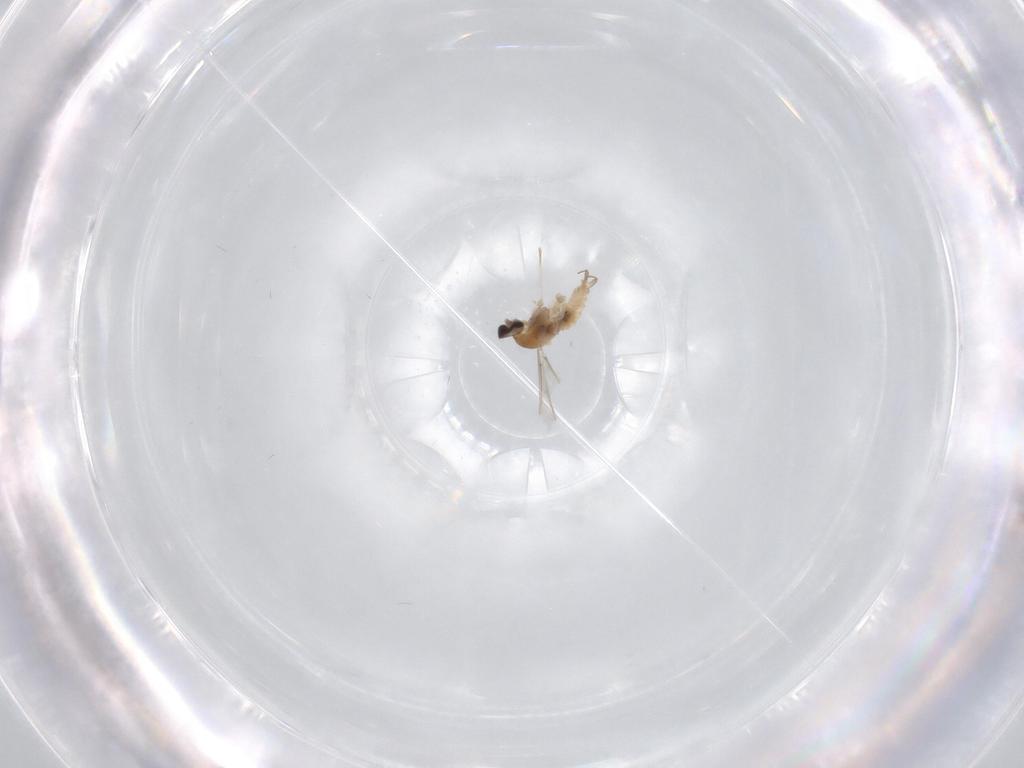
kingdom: Animalia
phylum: Arthropoda
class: Insecta
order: Diptera
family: Cecidomyiidae
